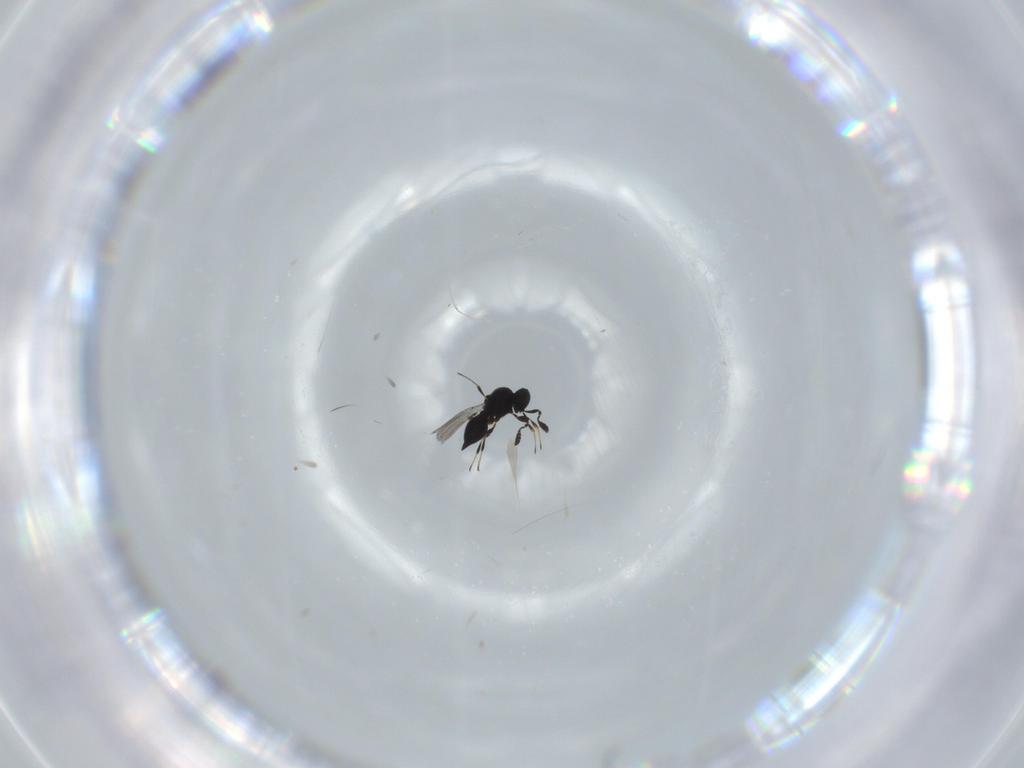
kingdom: Animalia
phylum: Arthropoda
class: Insecta
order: Hymenoptera
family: Platygastridae
